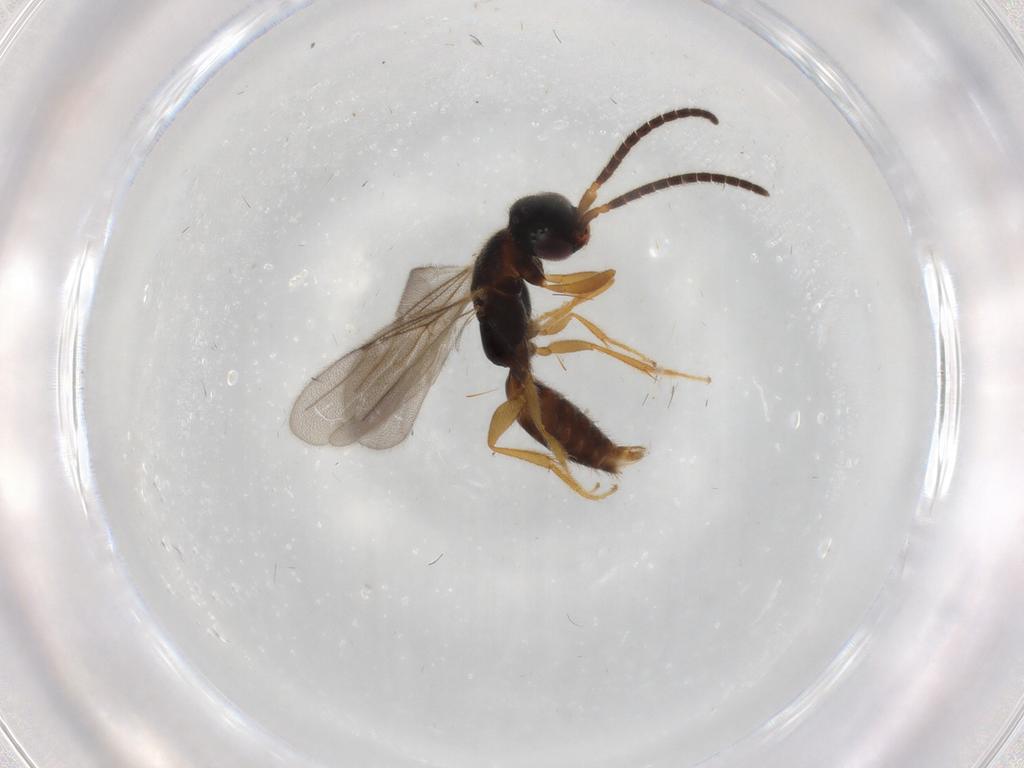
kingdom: Animalia
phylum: Arthropoda
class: Insecta
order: Hymenoptera
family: Bethylidae
